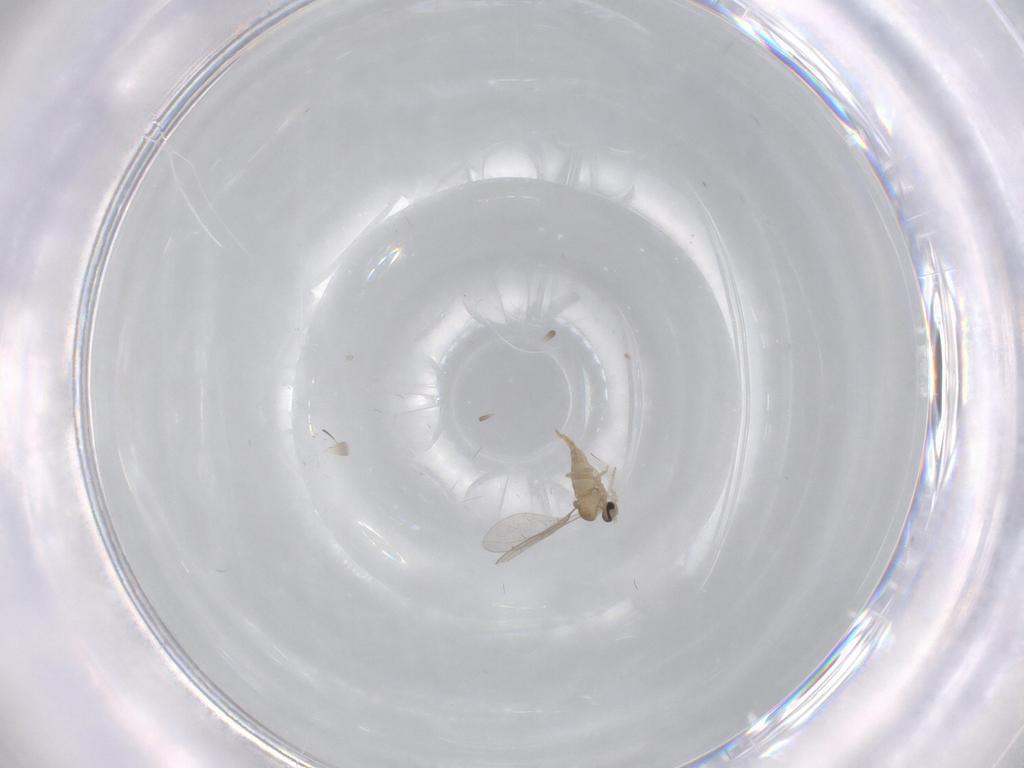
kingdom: Animalia
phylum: Arthropoda
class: Insecta
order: Diptera
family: Cecidomyiidae
